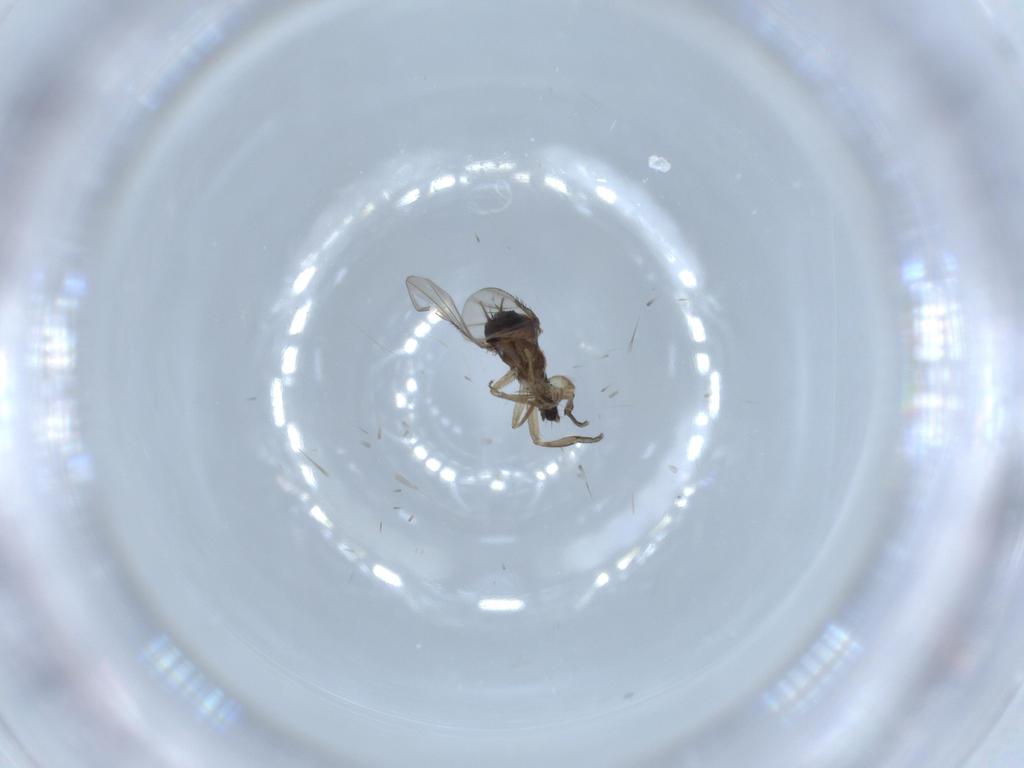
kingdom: Animalia
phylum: Arthropoda
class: Insecta
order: Diptera
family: Phoridae
